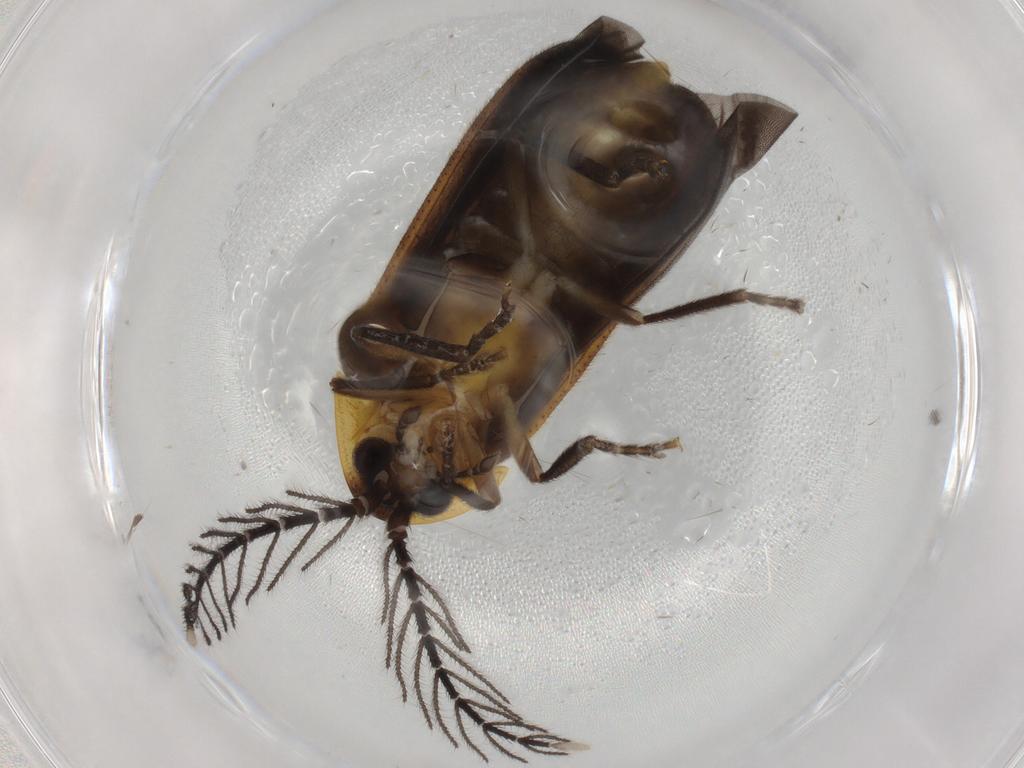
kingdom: Animalia
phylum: Arthropoda
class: Insecta
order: Coleoptera
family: Lampyridae
